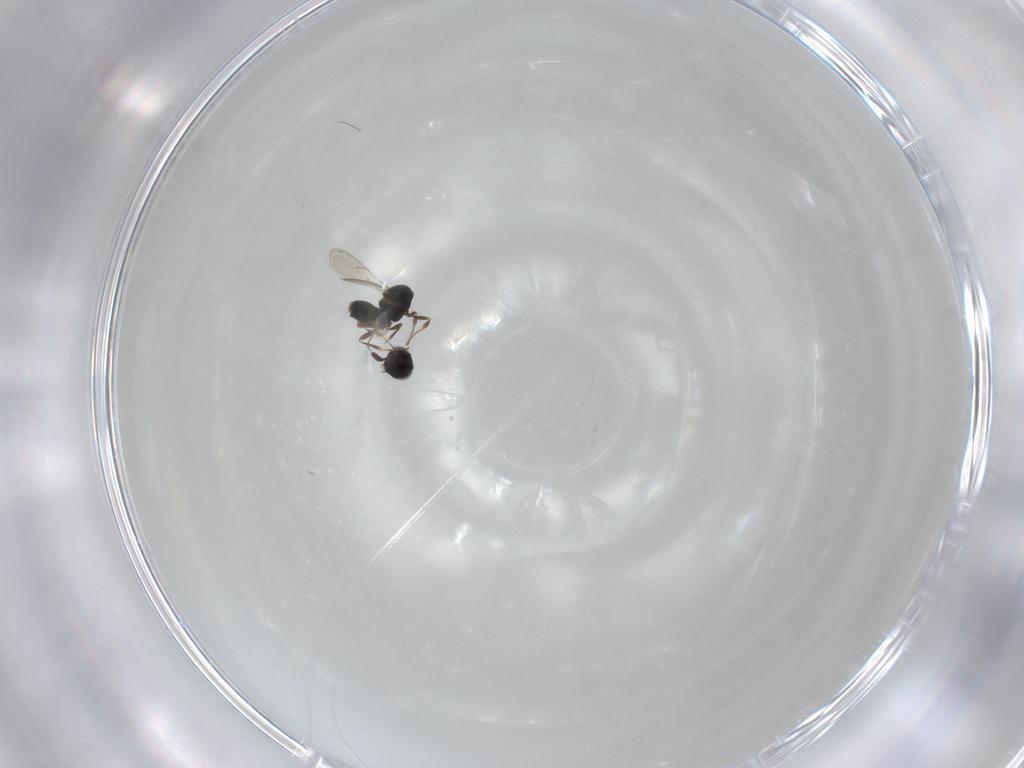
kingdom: Animalia
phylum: Arthropoda
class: Insecta
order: Hymenoptera
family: Scelionidae
